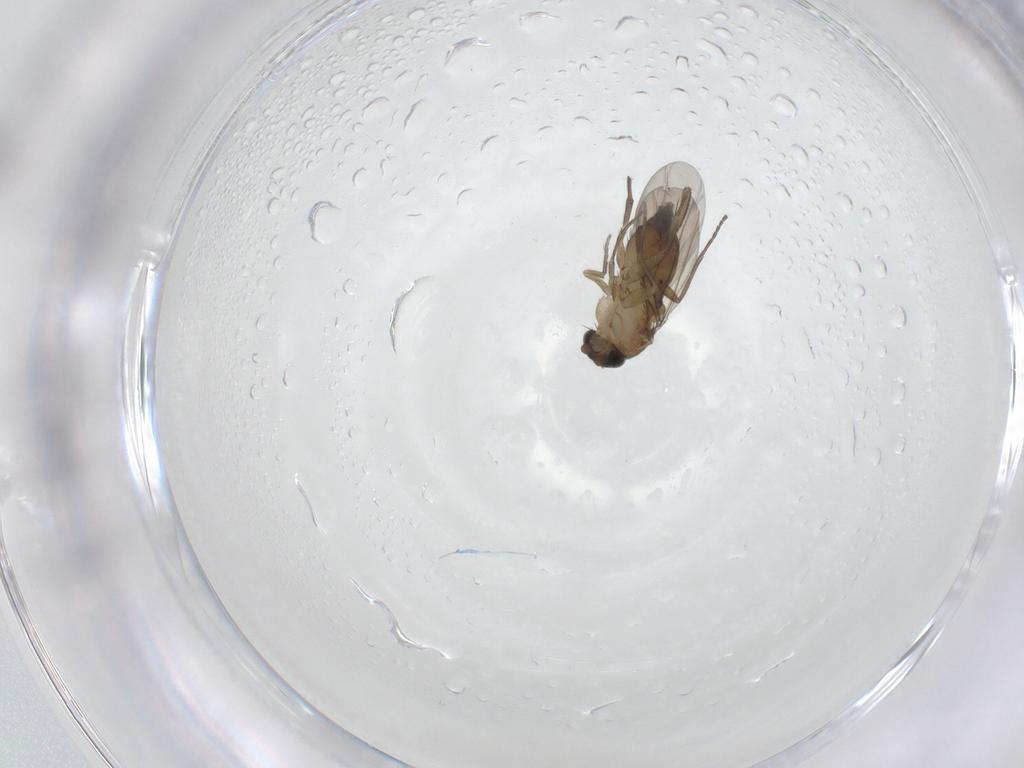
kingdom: Animalia
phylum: Arthropoda
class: Insecta
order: Diptera
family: Phoridae
